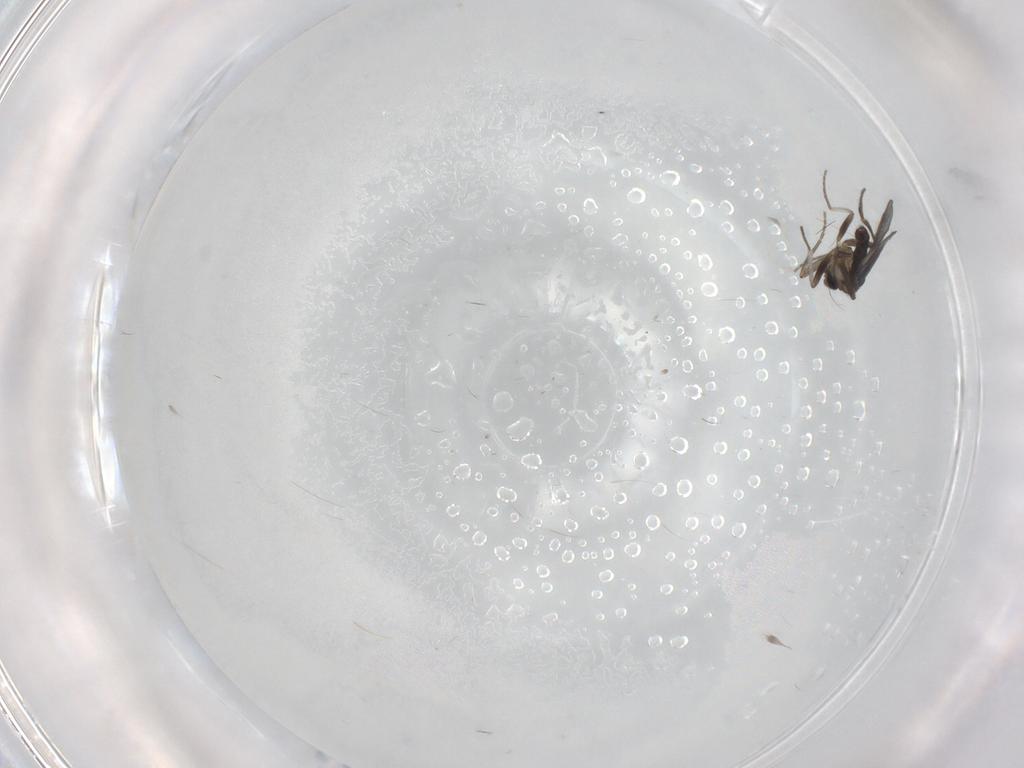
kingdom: Animalia
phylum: Arthropoda
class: Insecta
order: Diptera
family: Phoridae
